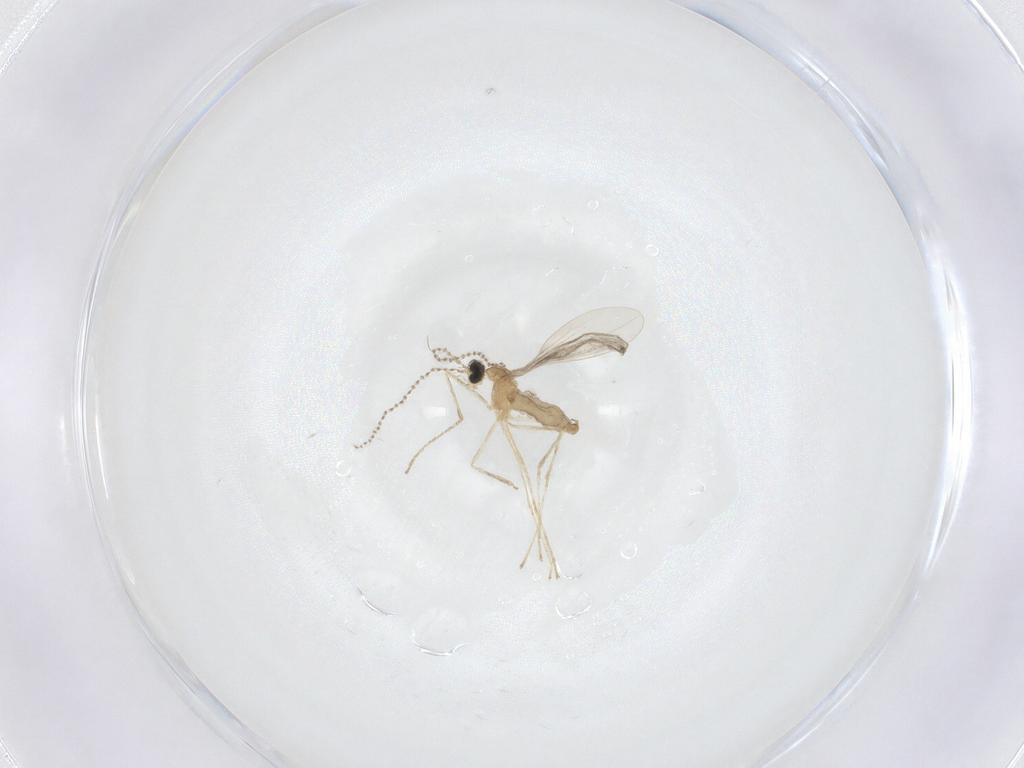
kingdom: Animalia
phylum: Arthropoda
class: Insecta
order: Diptera
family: Cecidomyiidae
